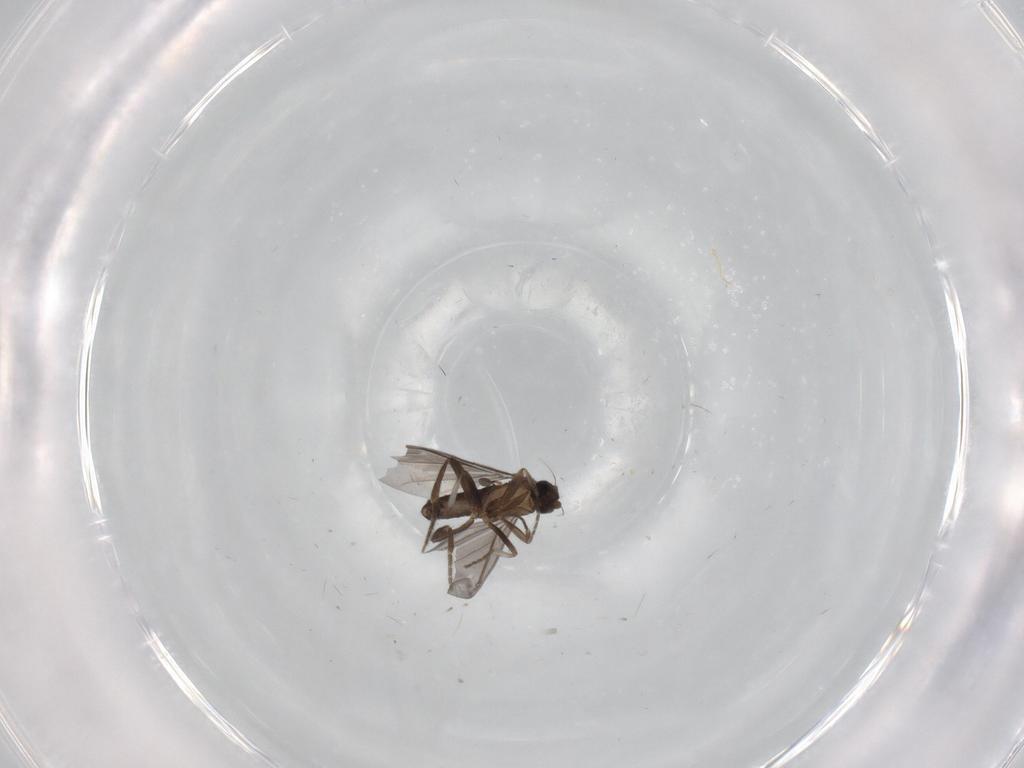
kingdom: Animalia
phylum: Arthropoda
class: Insecta
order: Diptera
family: Phoridae
